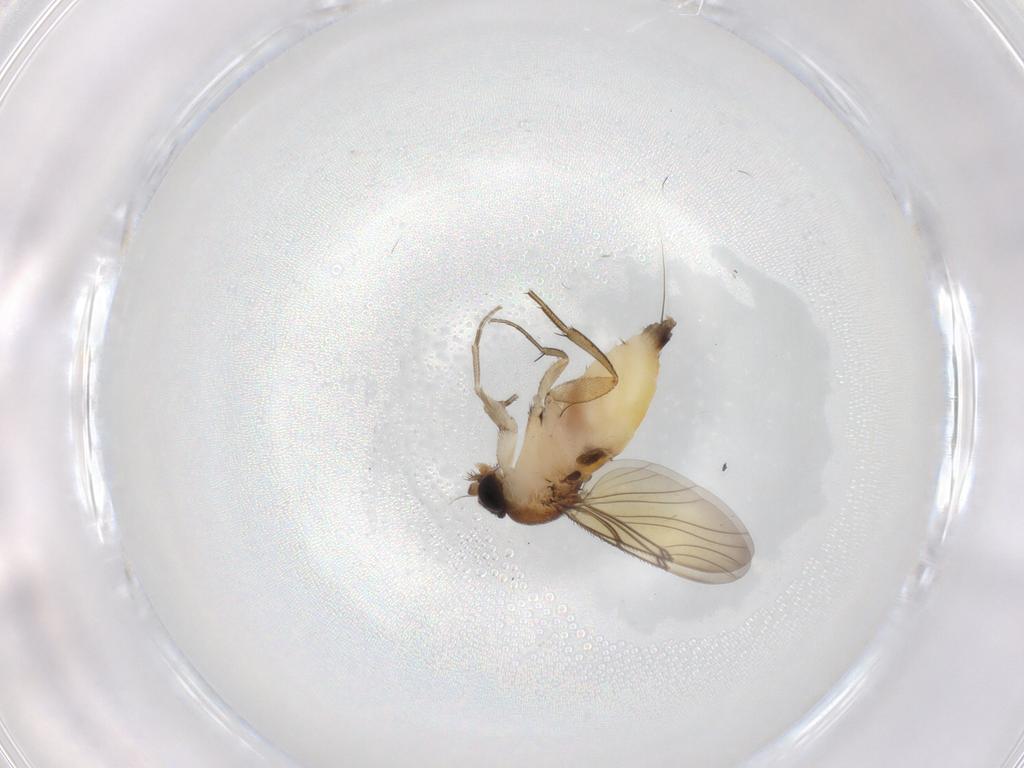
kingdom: Animalia
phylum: Arthropoda
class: Insecta
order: Diptera
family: Phoridae
